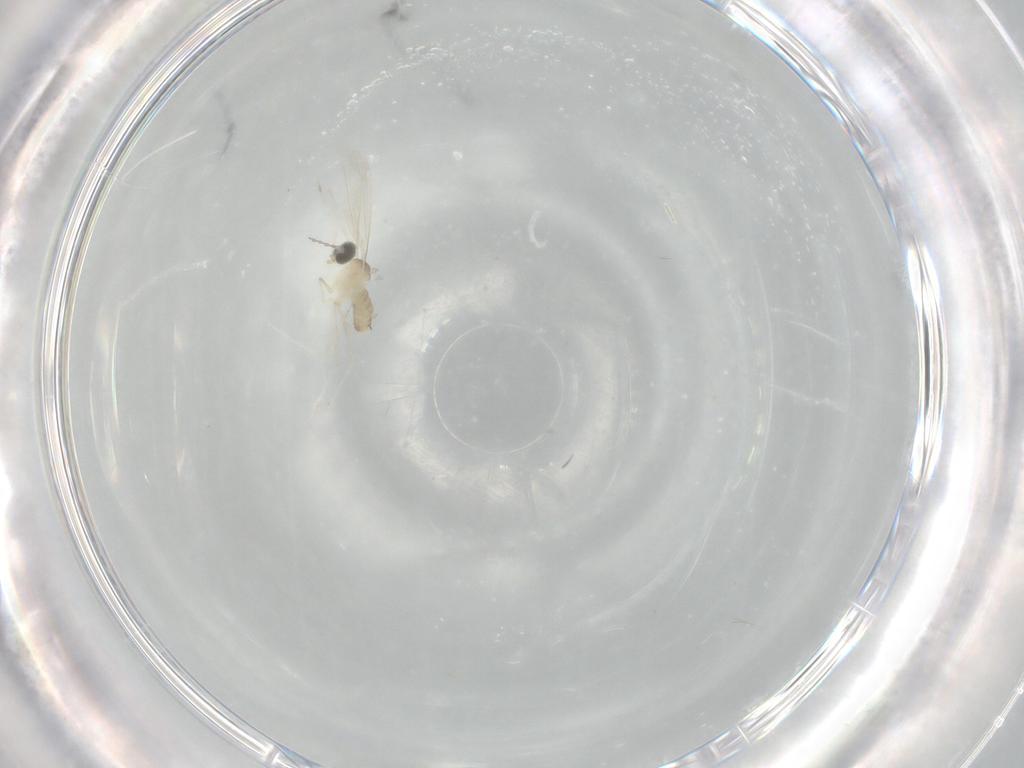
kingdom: Animalia
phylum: Arthropoda
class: Insecta
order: Diptera
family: Cecidomyiidae
